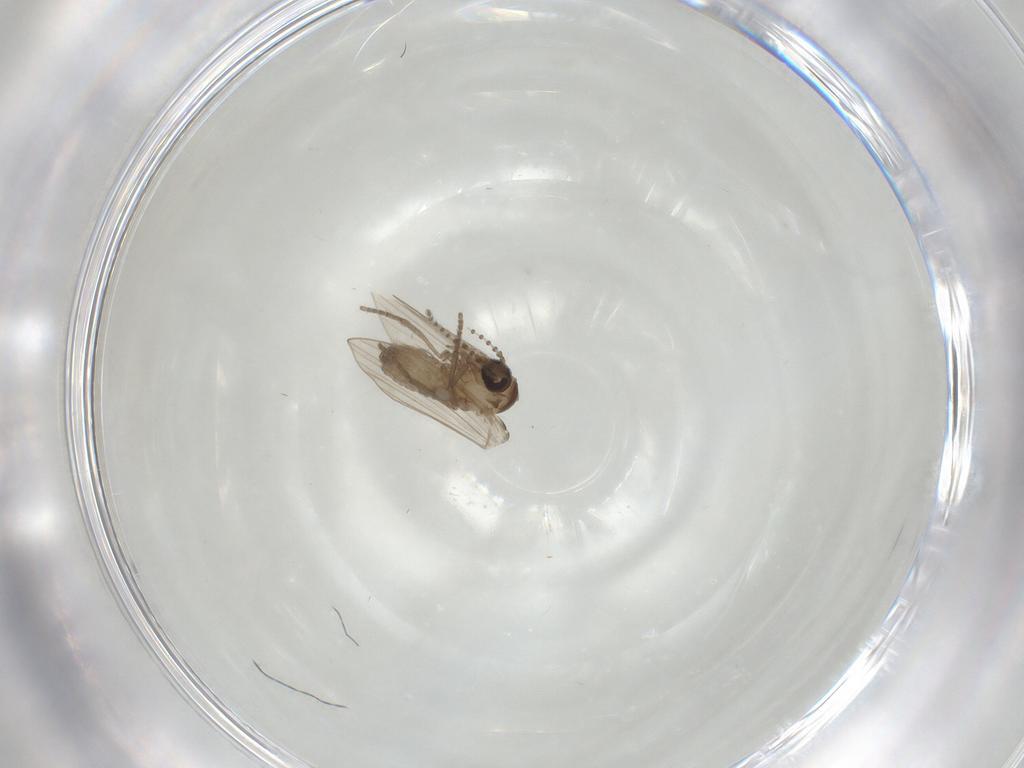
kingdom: Animalia
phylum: Arthropoda
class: Insecta
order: Diptera
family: Psychodidae
